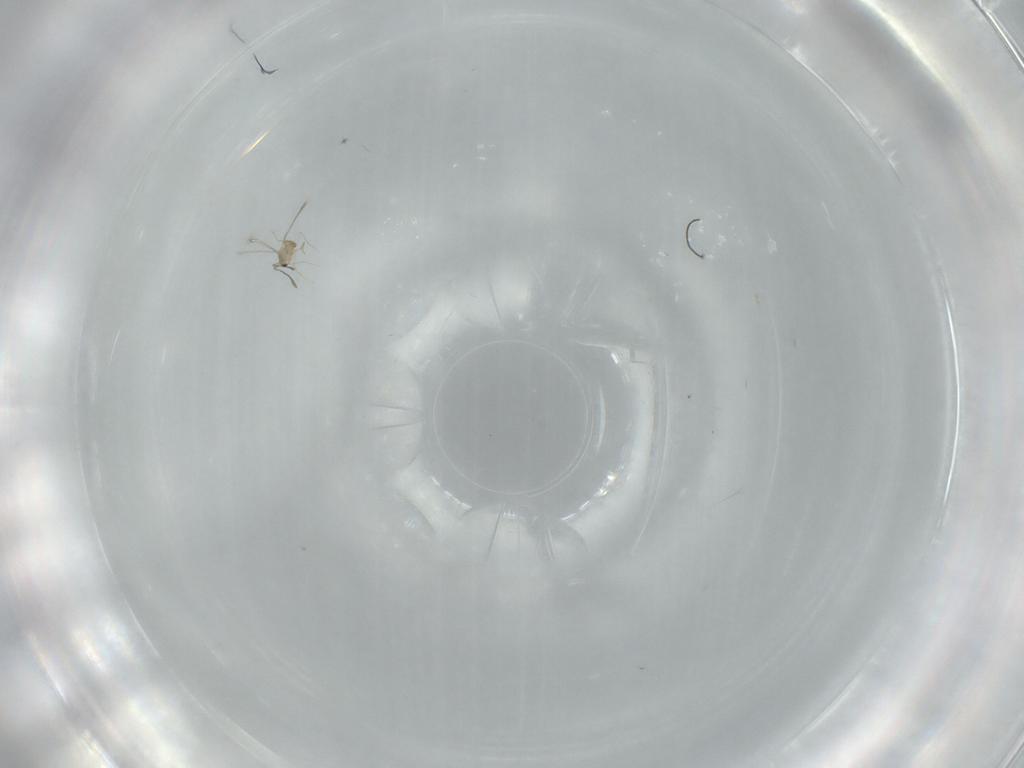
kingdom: Animalia
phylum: Arthropoda
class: Insecta
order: Hymenoptera
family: Mymaridae
